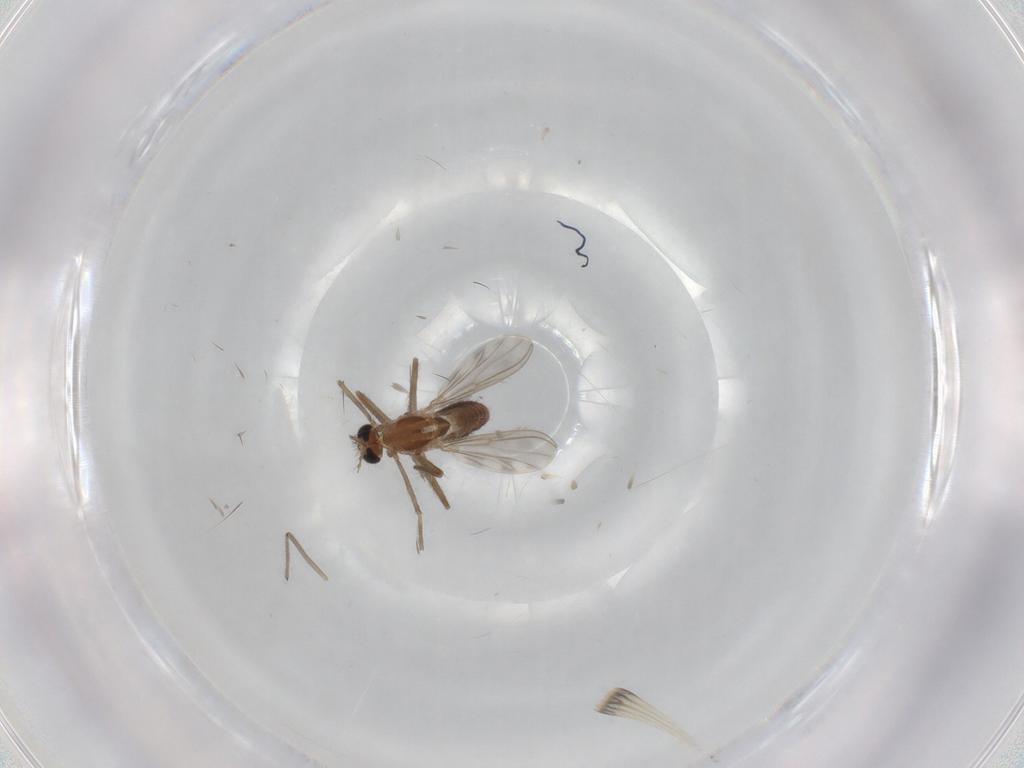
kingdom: Animalia
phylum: Arthropoda
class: Insecta
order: Diptera
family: Chironomidae
